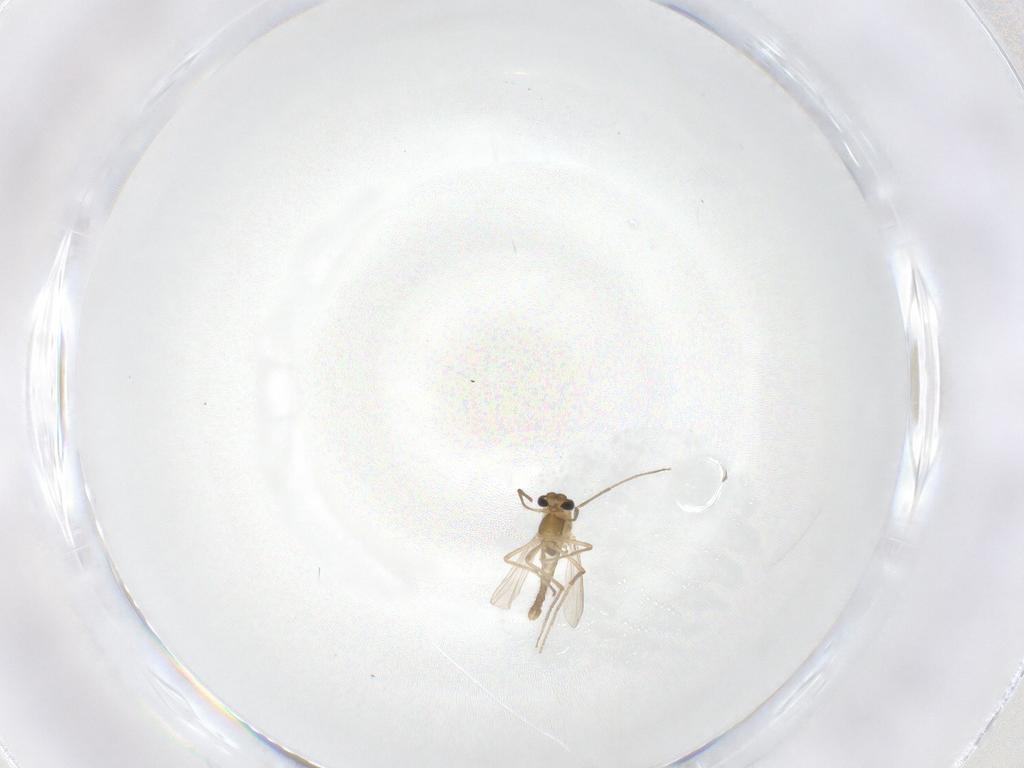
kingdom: Animalia
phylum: Arthropoda
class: Insecta
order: Diptera
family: Chironomidae
